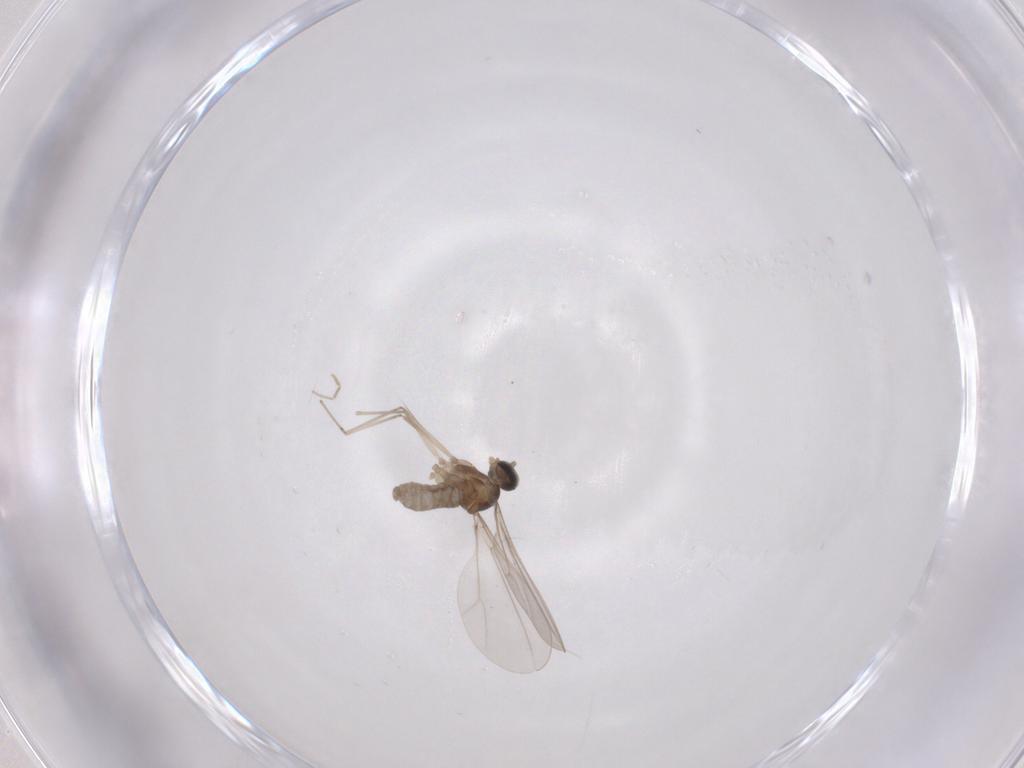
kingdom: Animalia
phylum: Arthropoda
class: Insecta
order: Diptera
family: Cecidomyiidae
